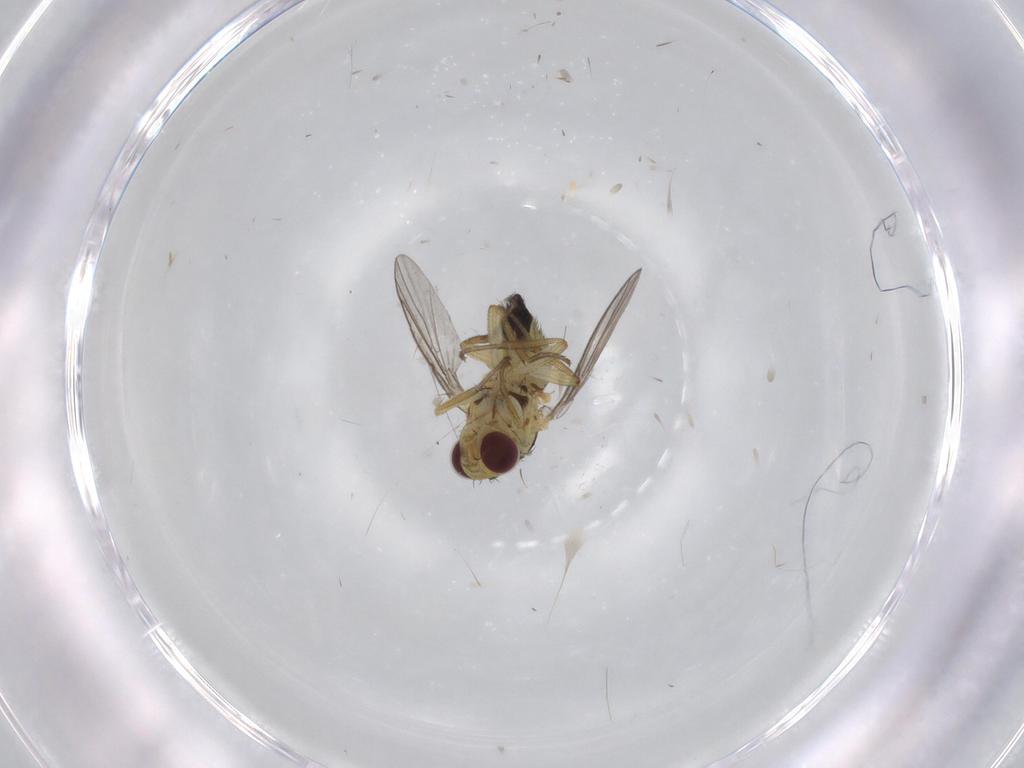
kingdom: Animalia
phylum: Arthropoda
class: Insecta
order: Diptera
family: Agromyzidae
